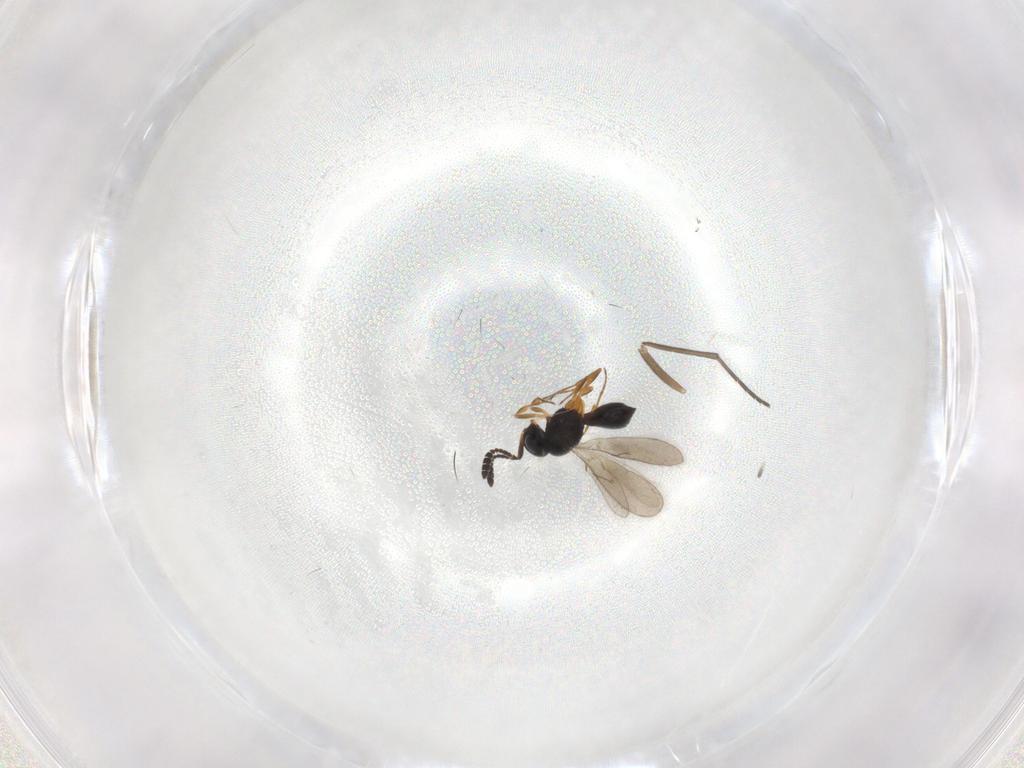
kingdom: Animalia
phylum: Arthropoda
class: Insecta
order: Hymenoptera
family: Scelionidae
